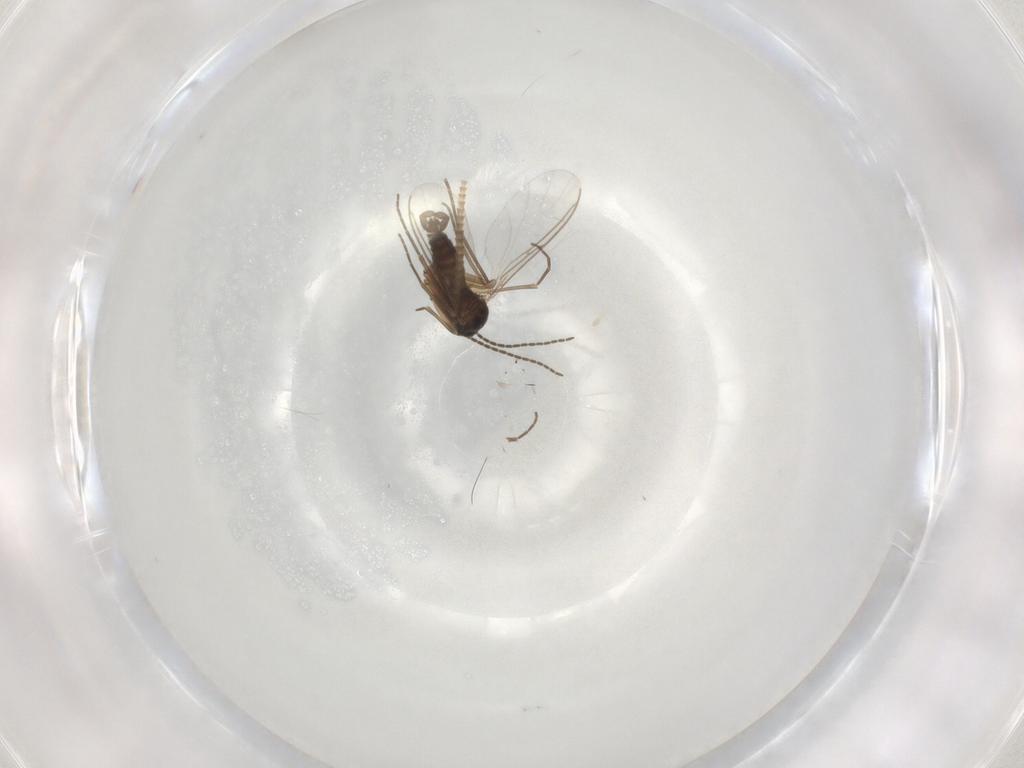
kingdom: Animalia
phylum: Arthropoda
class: Insecta
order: Diptera
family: Sciaridae
